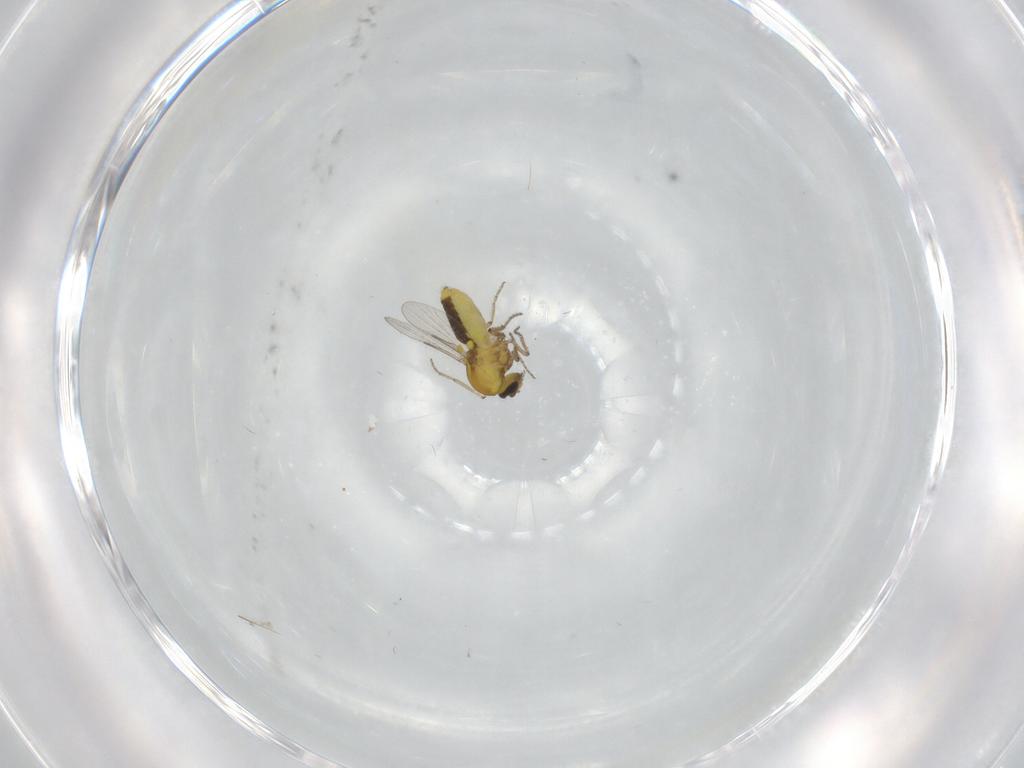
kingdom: Animalia
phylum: Arthropoda
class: Insecta
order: Diptera
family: Ceratopogonidae
